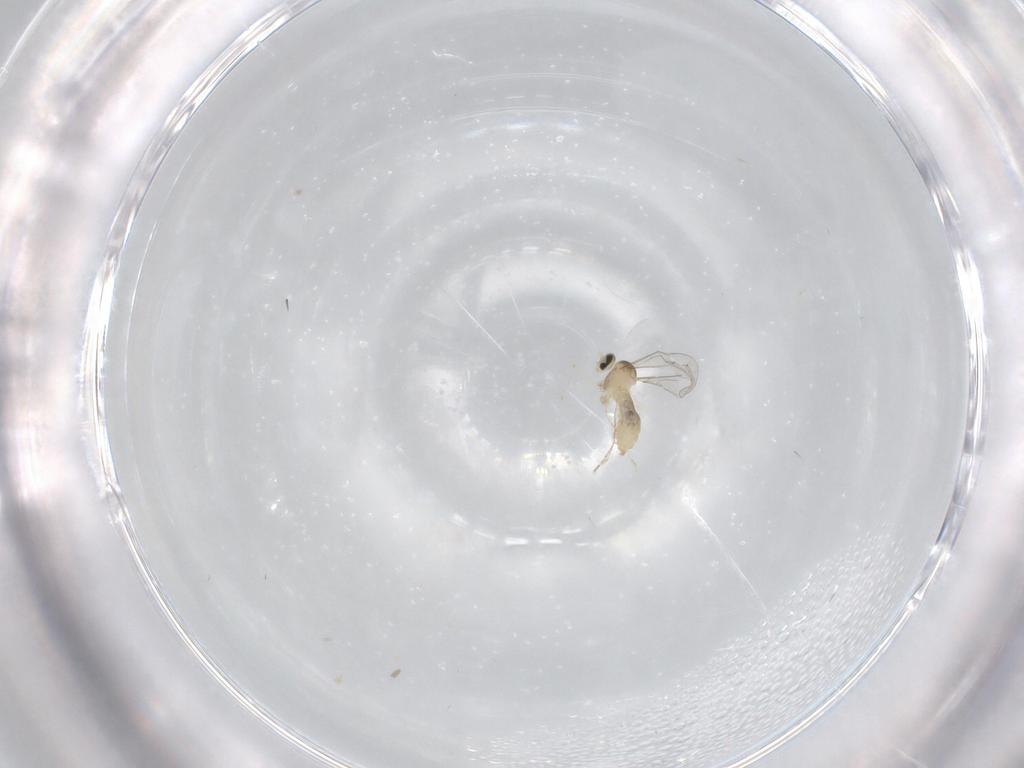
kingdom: Animalia
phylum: Arthropoda
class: Insecta
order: Diptera
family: Cecidomyiidae
